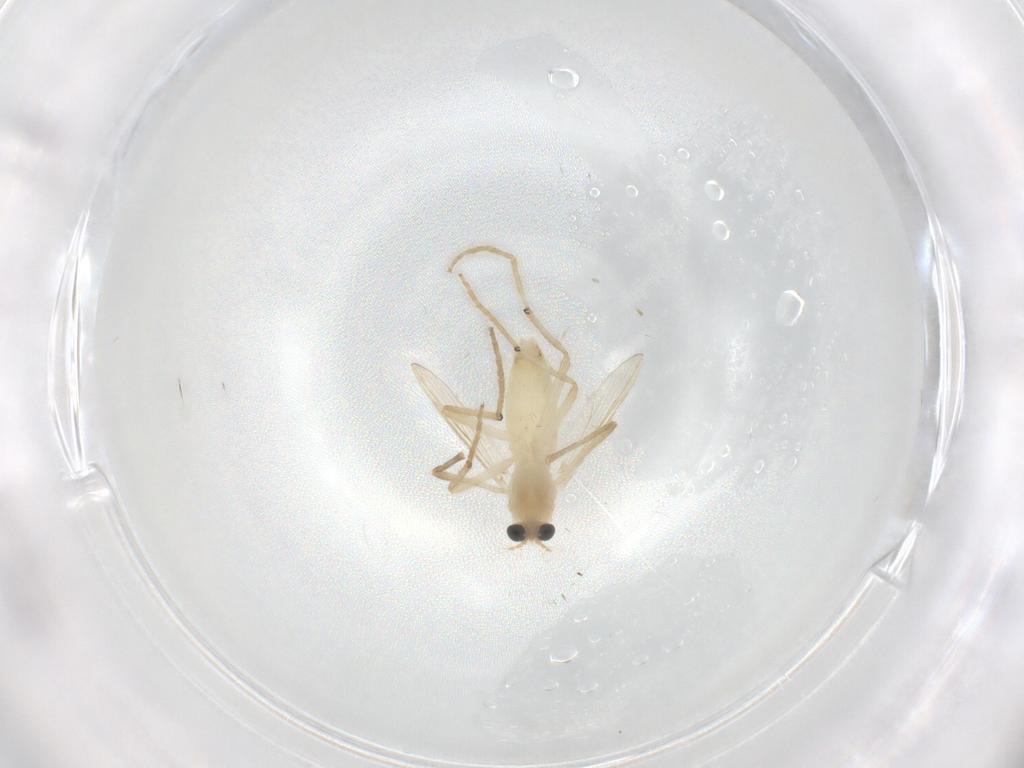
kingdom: Animalia
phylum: Arthropoda
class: Insecta
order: Diptera
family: Chironomidae
